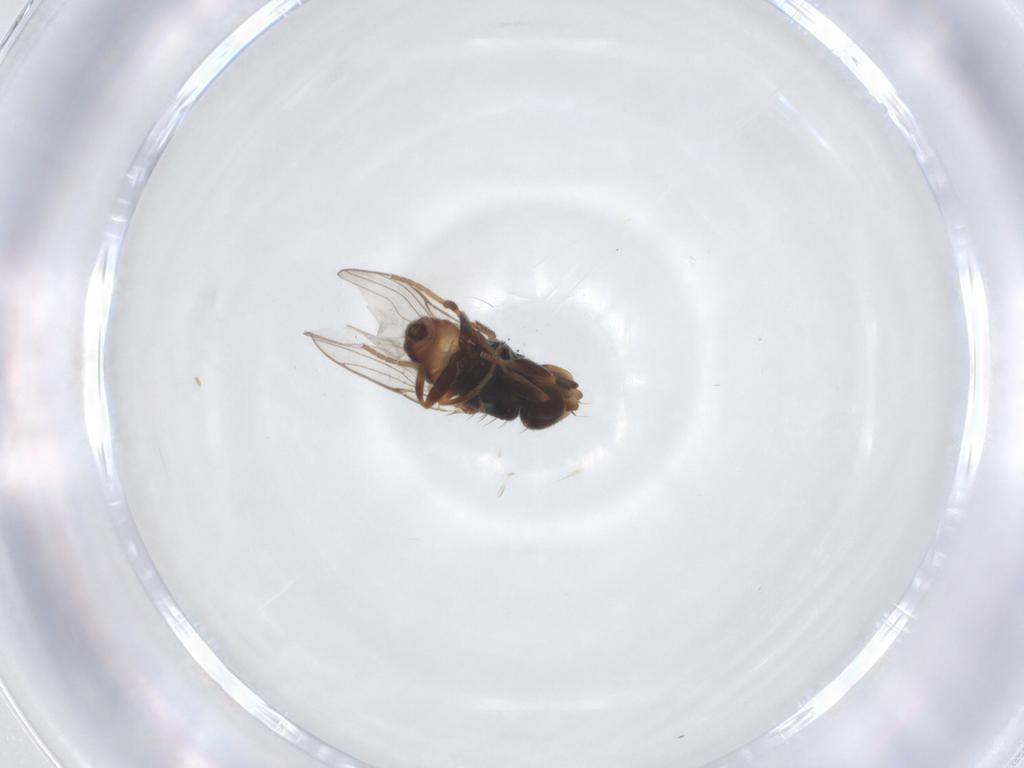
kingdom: Animalia
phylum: Arthropoda
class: Insecta
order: Diptera
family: Chloropidae
